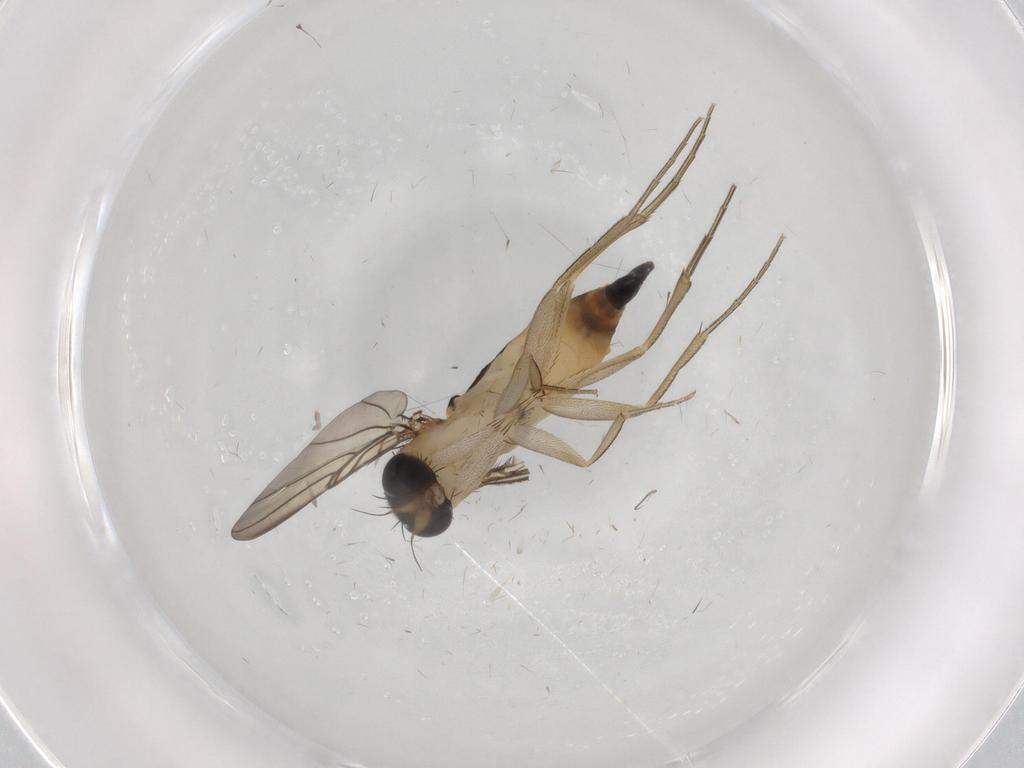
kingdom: Animalia
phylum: Arthropoda
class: Insecta
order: Diptera
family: Phoridae
